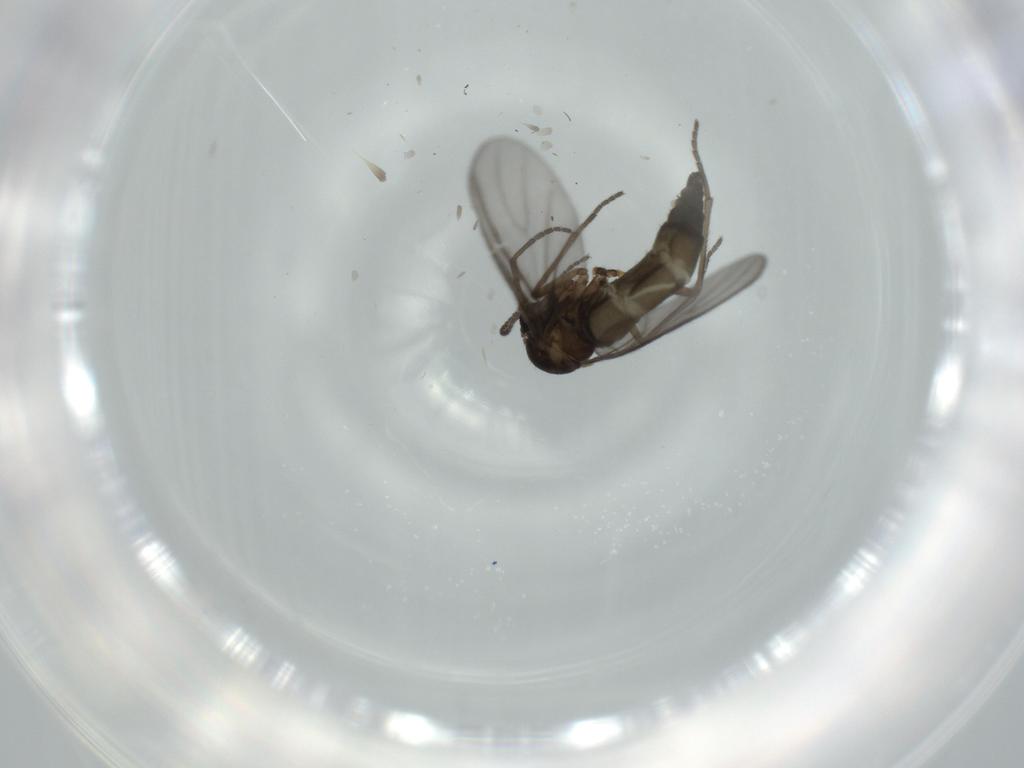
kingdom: Animalia
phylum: Arthropoda
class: Insecta
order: Diptera
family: Sciaridae
